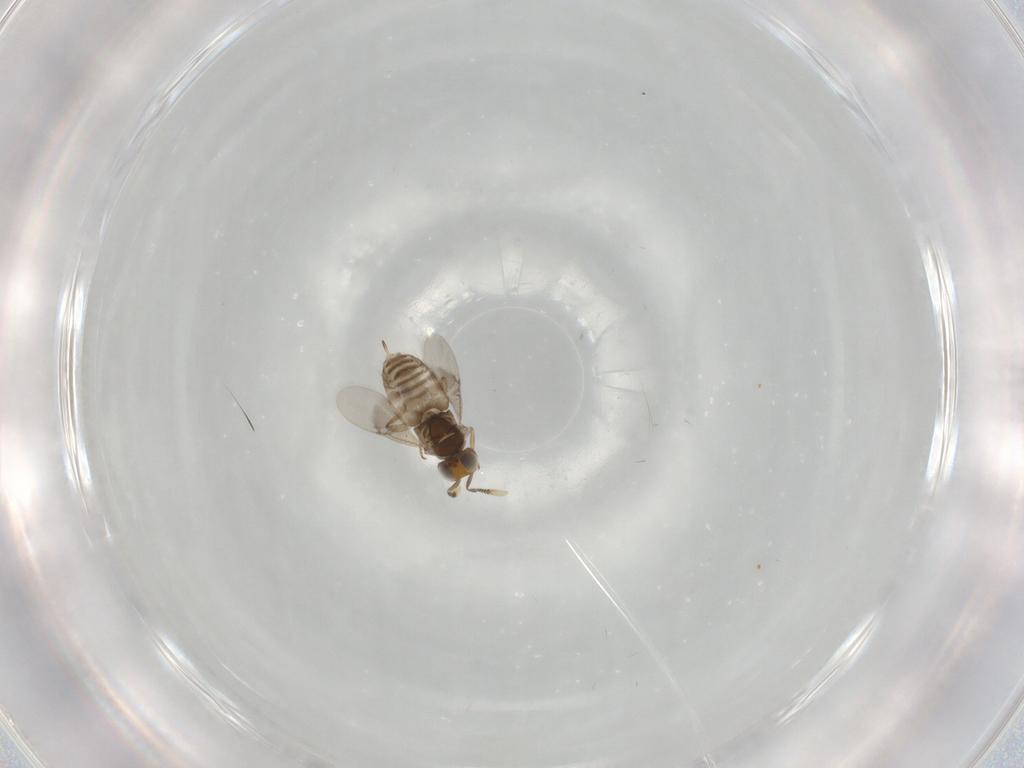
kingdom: Animalia
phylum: Arthropoda
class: Insecta
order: Hymenoptera
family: Encyrtidae
